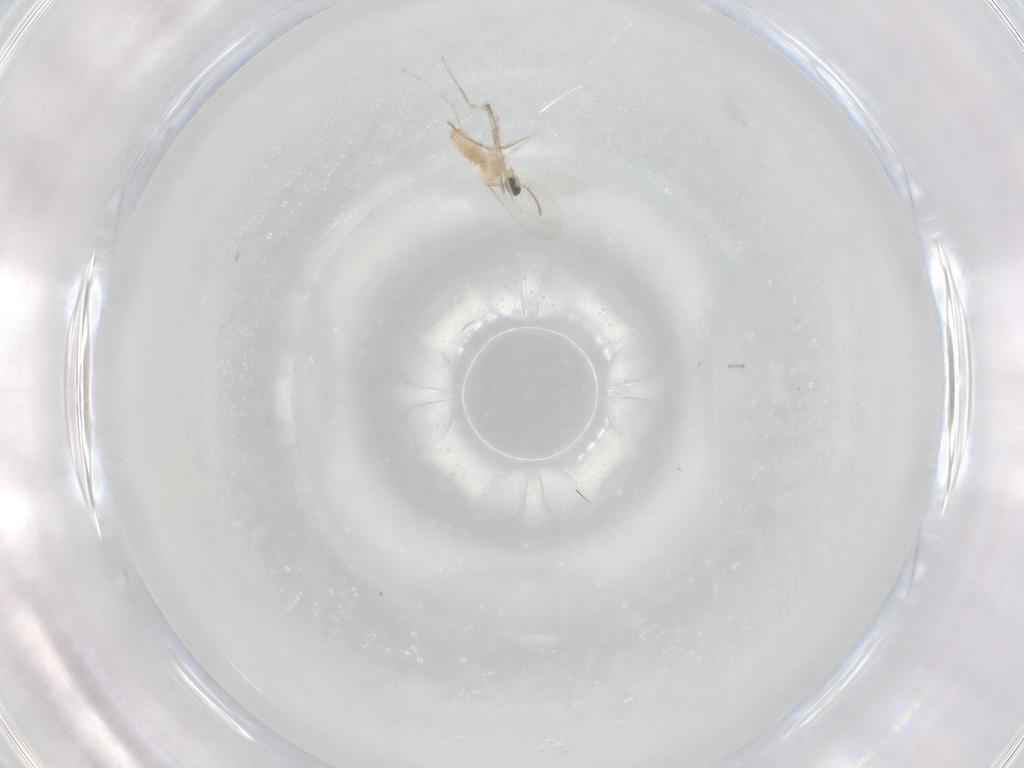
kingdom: Animalia
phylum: Arthropoda
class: Insecta
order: Diptera
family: Cecidomyiidae
